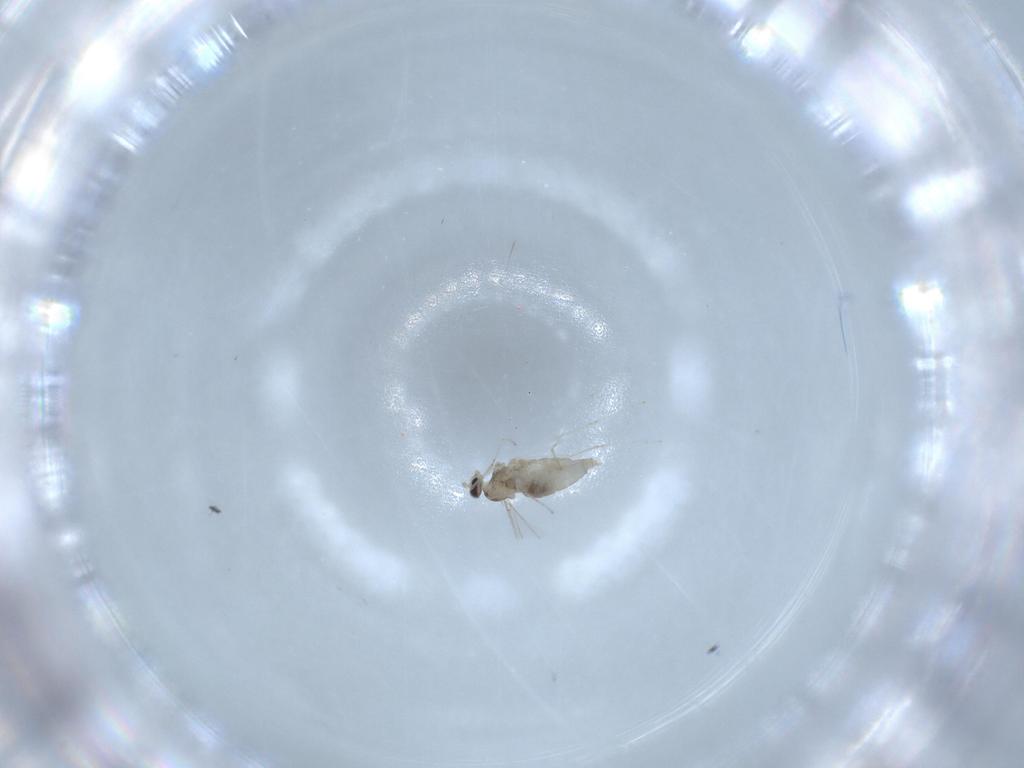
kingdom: Animalia
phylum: Arthropoda
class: Insecta
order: Diptera
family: Cecidomyiidae
